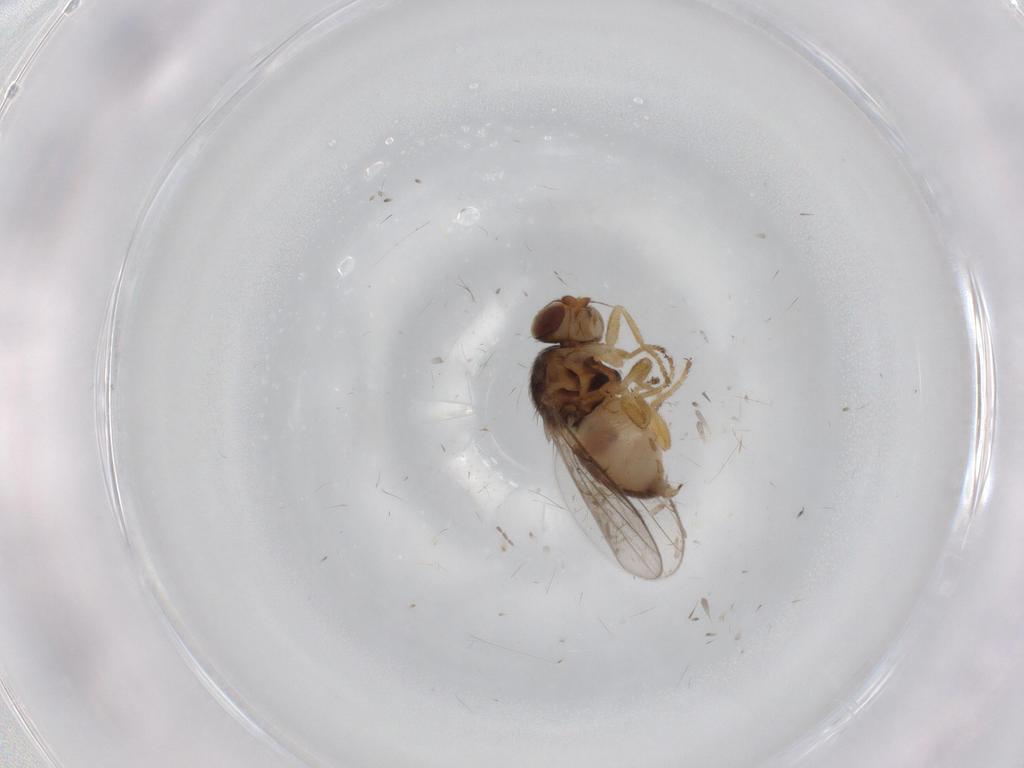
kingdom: Animalia
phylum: Arthropoda
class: Insecta
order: Diptera
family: Chloropidae
